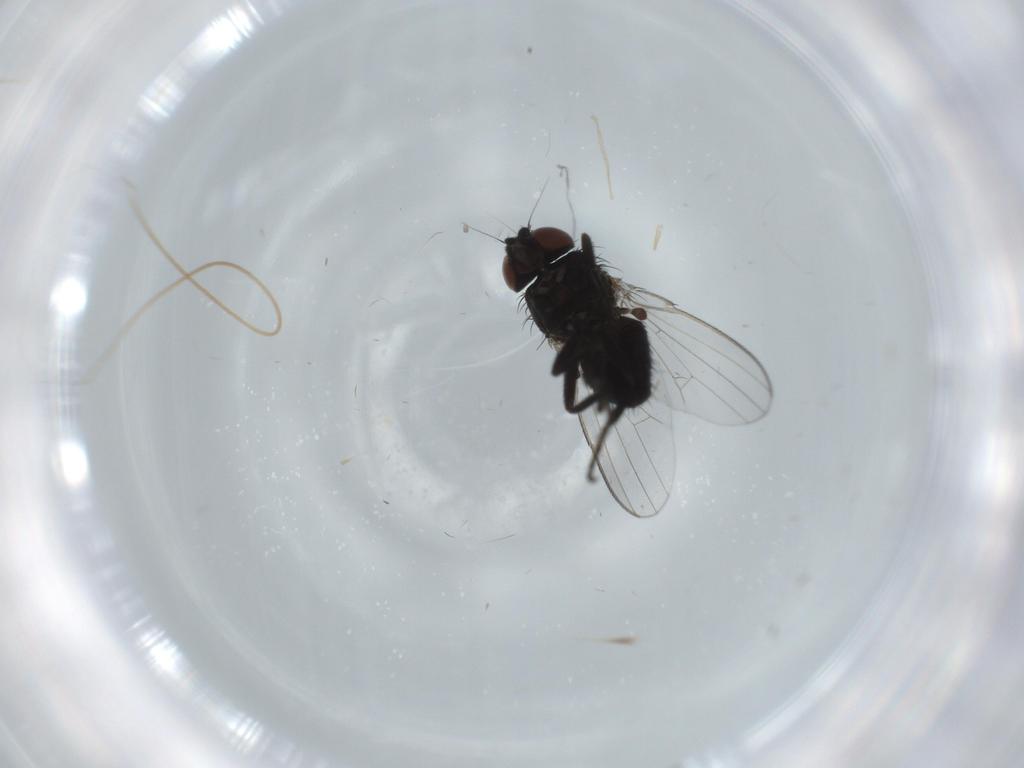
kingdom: Animalia
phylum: Arthropoda
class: Insecta
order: Diptera
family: Milichiidae
